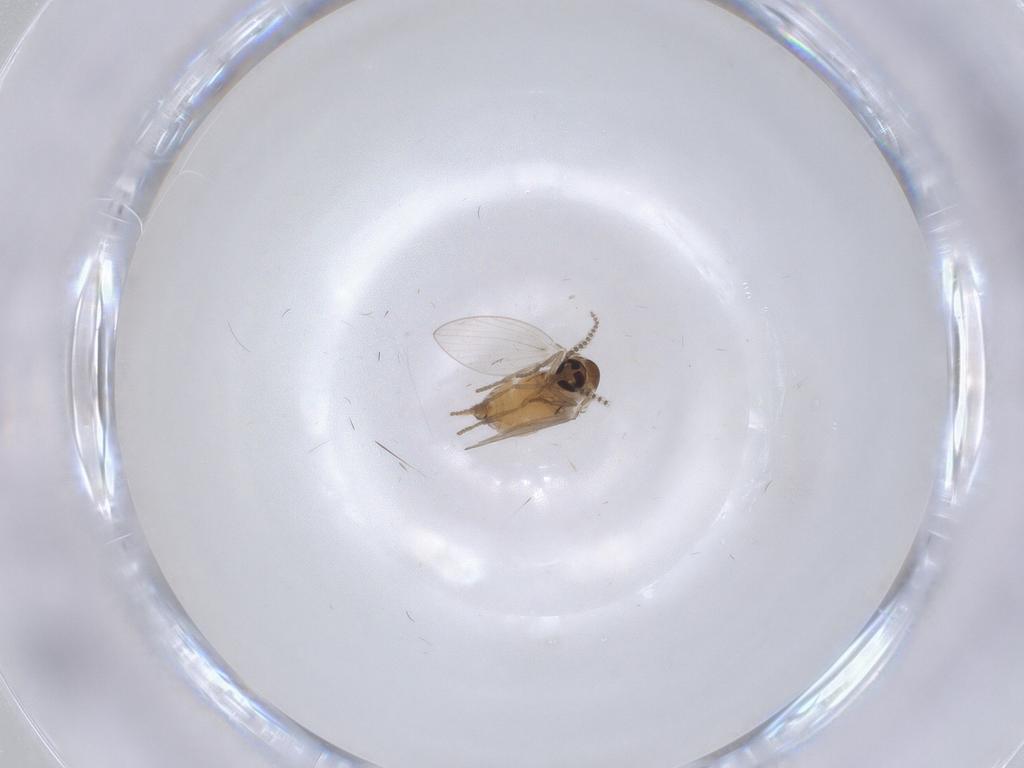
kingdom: Animalia
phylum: Arthropoda
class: Insecta
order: Diptera
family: Psychodidae
